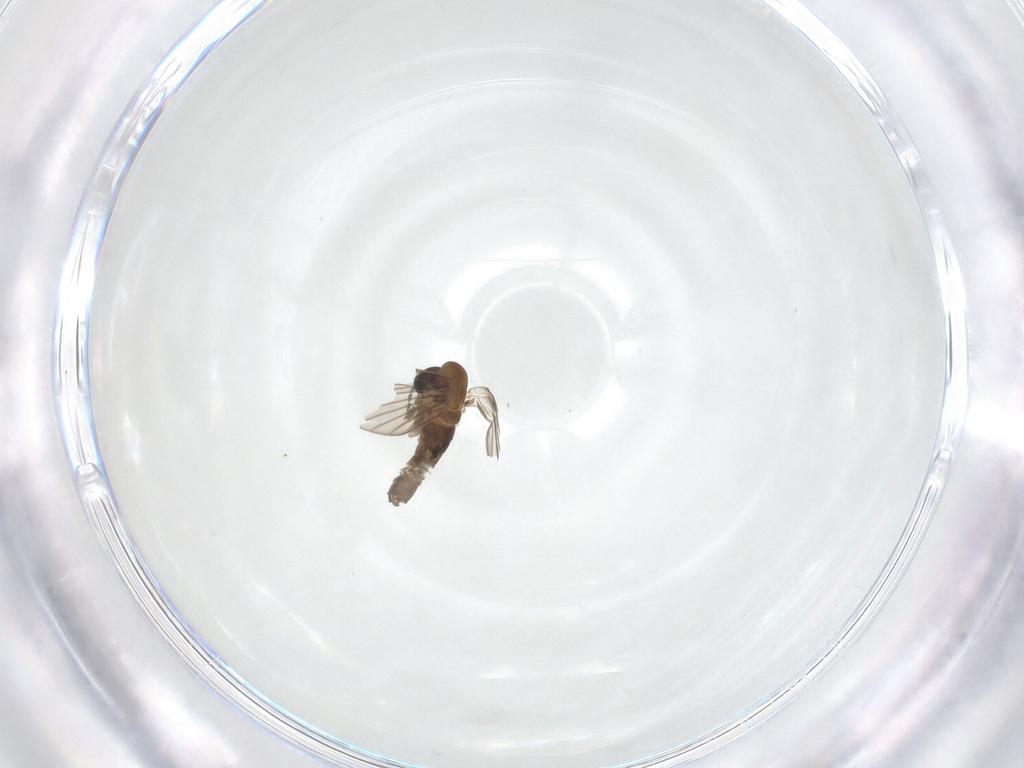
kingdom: Animalia
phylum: Arthropoda
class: Insecta
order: Diptera
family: Psychodidae
